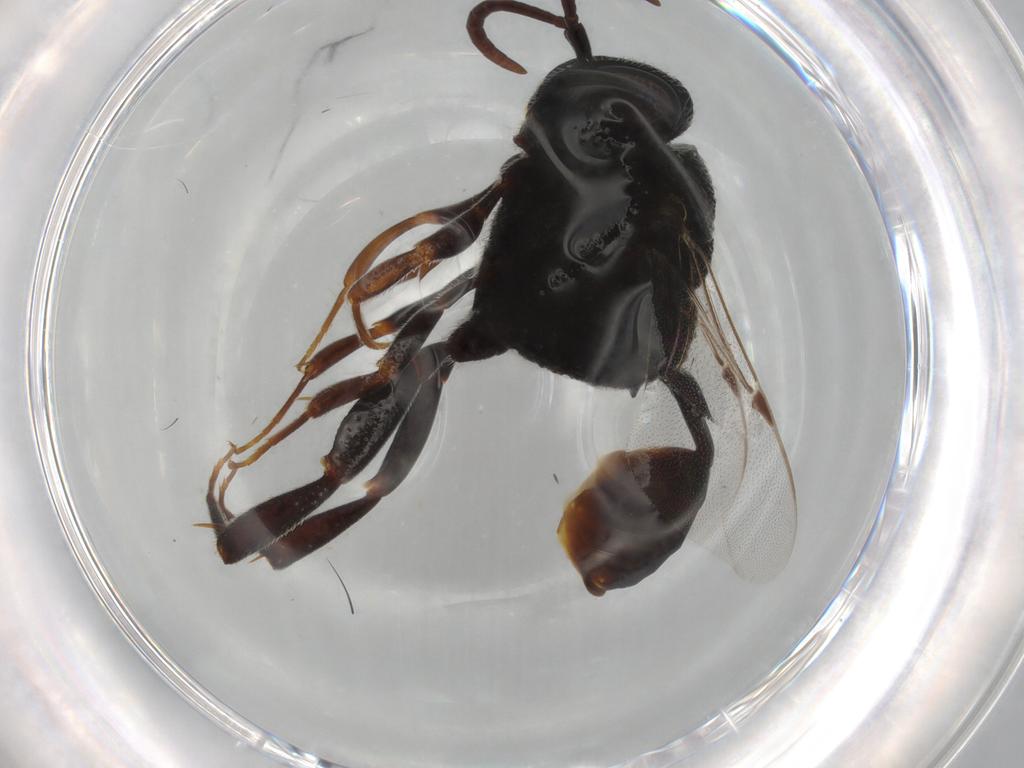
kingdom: Animalia
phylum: Arthropoda
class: Insecta
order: Hymenoptera
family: Evaniidae
